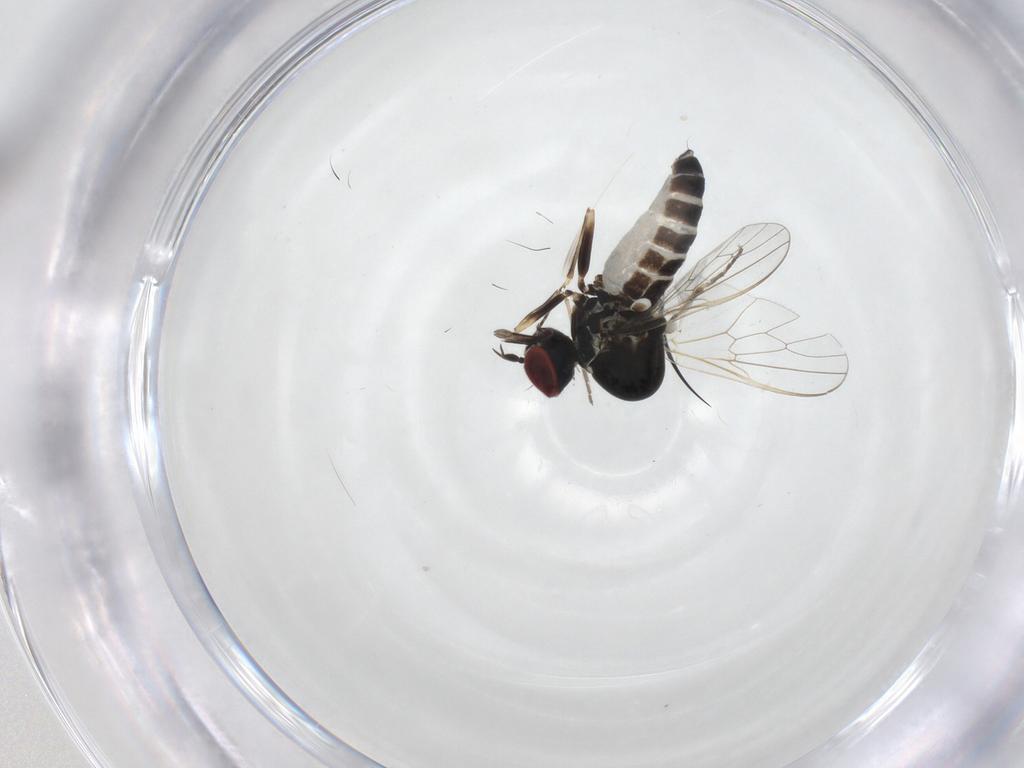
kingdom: Animalia
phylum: Arthropoda
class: Insecta
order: Diptera
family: Bombyliidae
